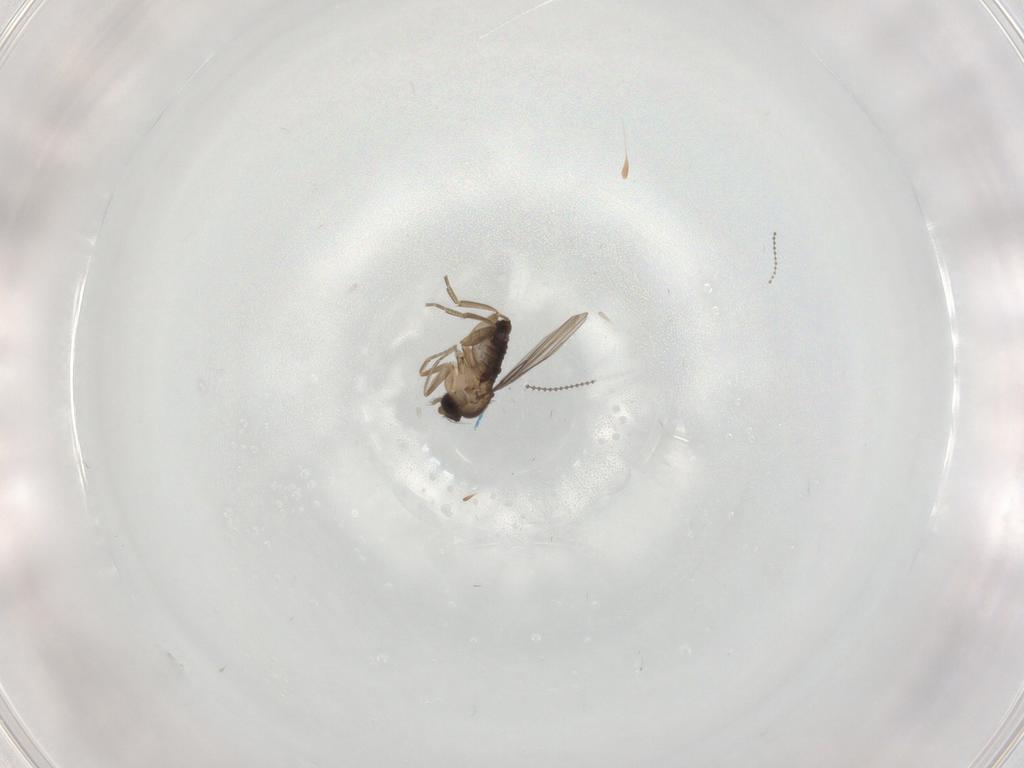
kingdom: Animalia
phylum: Arthropoda
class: Insecta
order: Diptera
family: Phoridae
